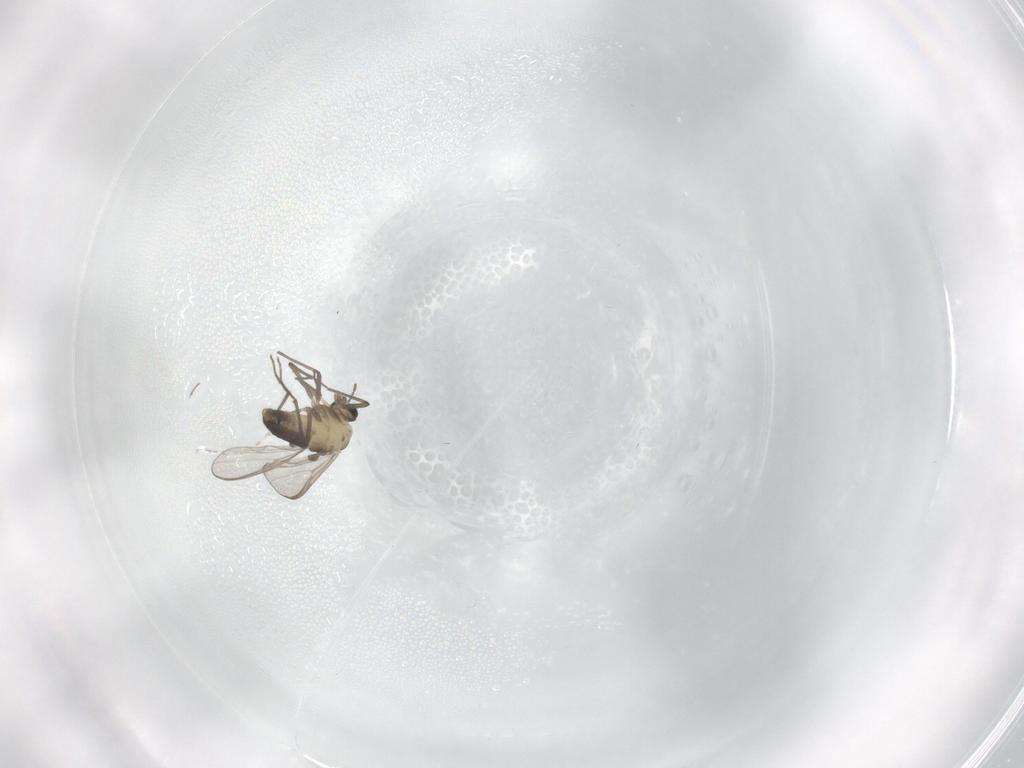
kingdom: Animalia
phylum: Arthropoda
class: Insecta
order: Diptera
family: Chironomidae
